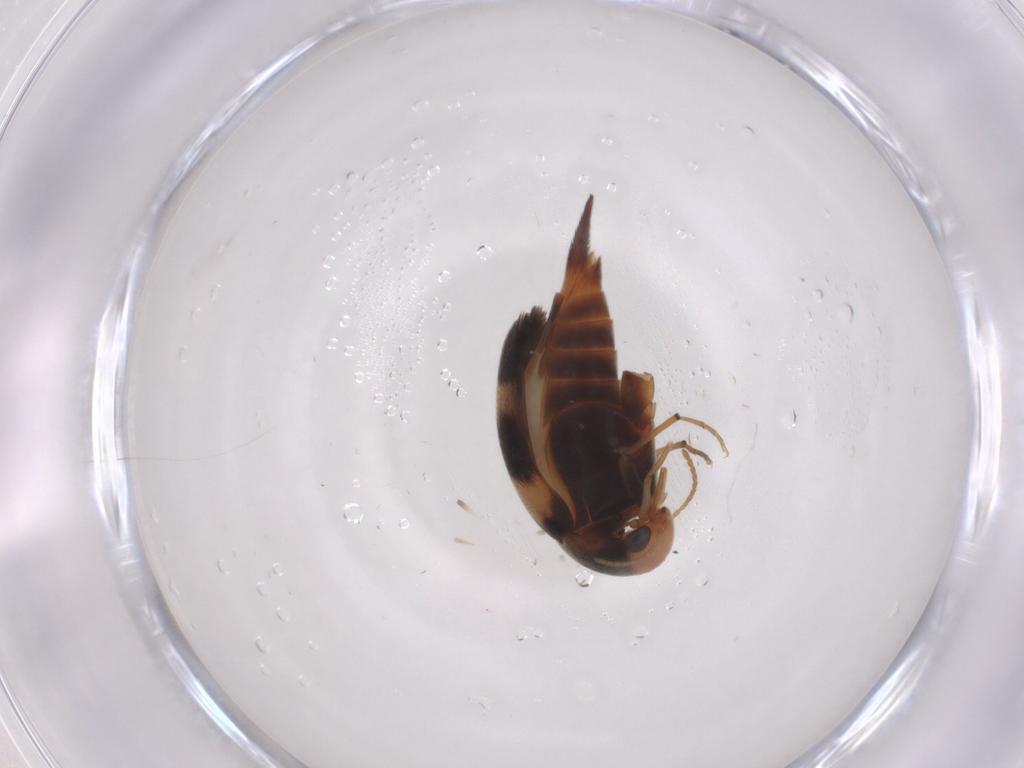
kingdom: Animalia
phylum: Arthropoda
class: Insecta
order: Coleoptera
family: Mordellidae
